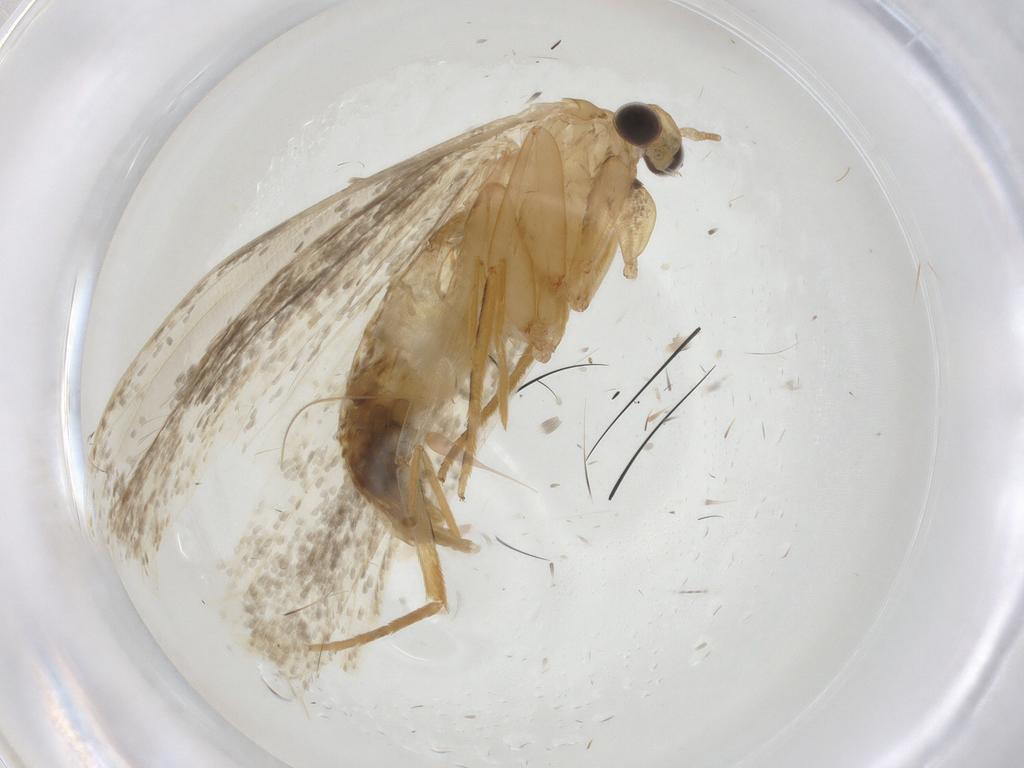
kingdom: Animalia
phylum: Arthropoda
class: Insecta
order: Lepidoptera
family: Tineidae
